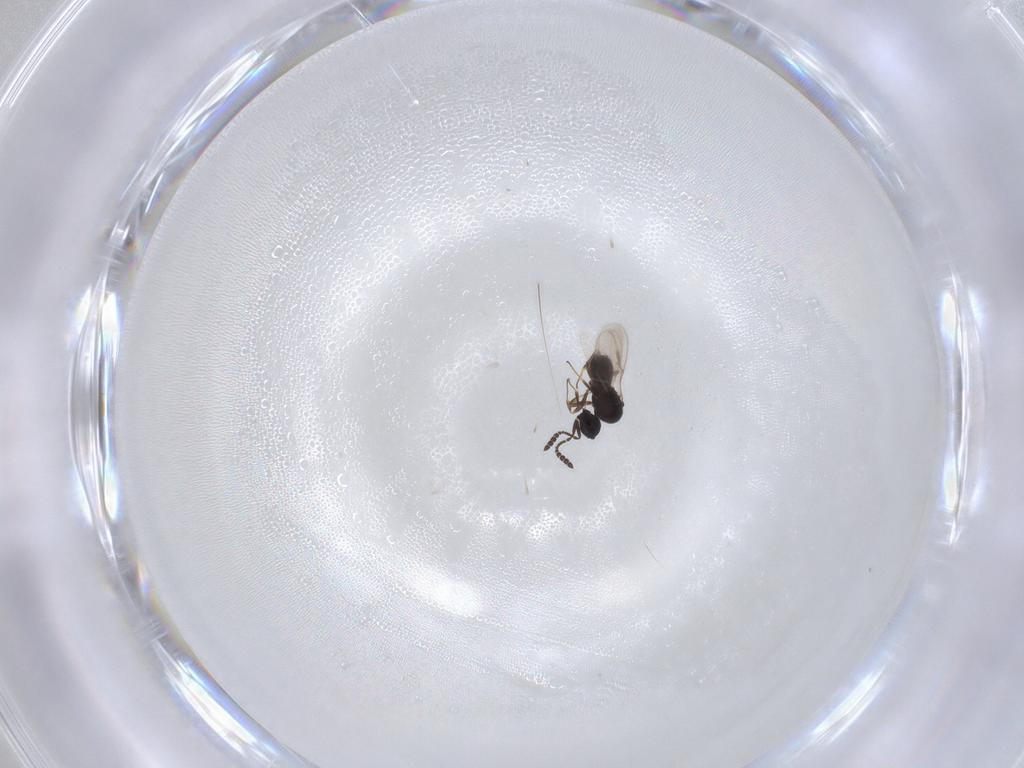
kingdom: Animalia
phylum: Arthropoda
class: Insecta
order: Hymenoptera
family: Scelionidae
